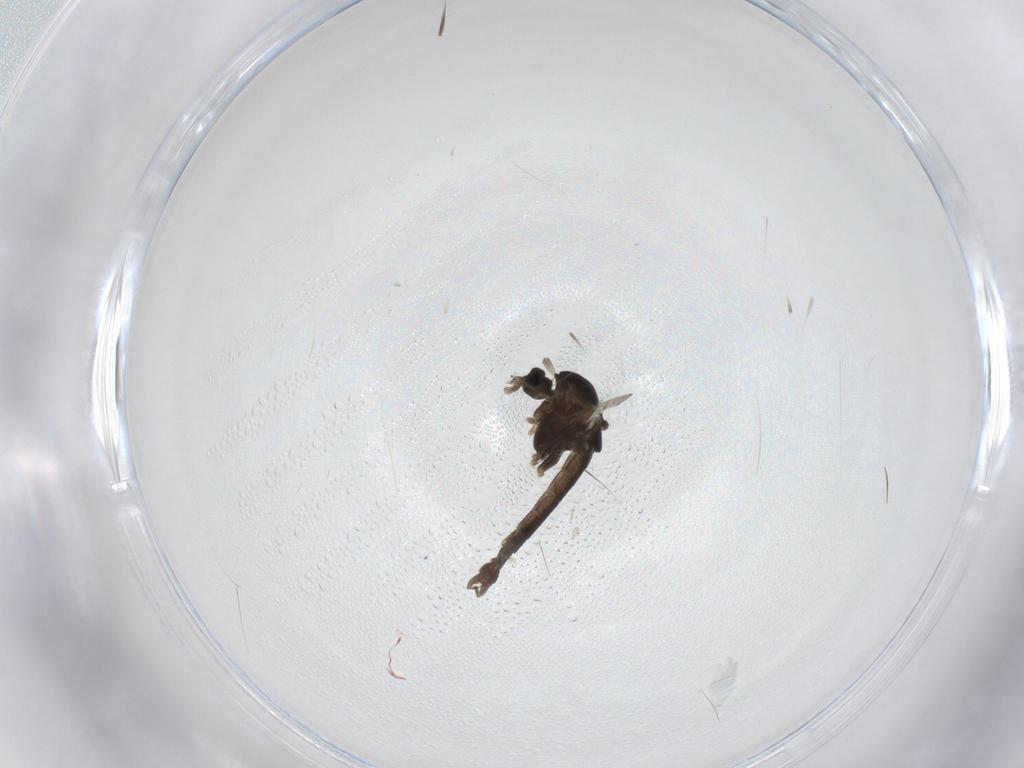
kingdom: Animalia
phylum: Arthropoda
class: Insecta
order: Diptera
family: Chironomidae
